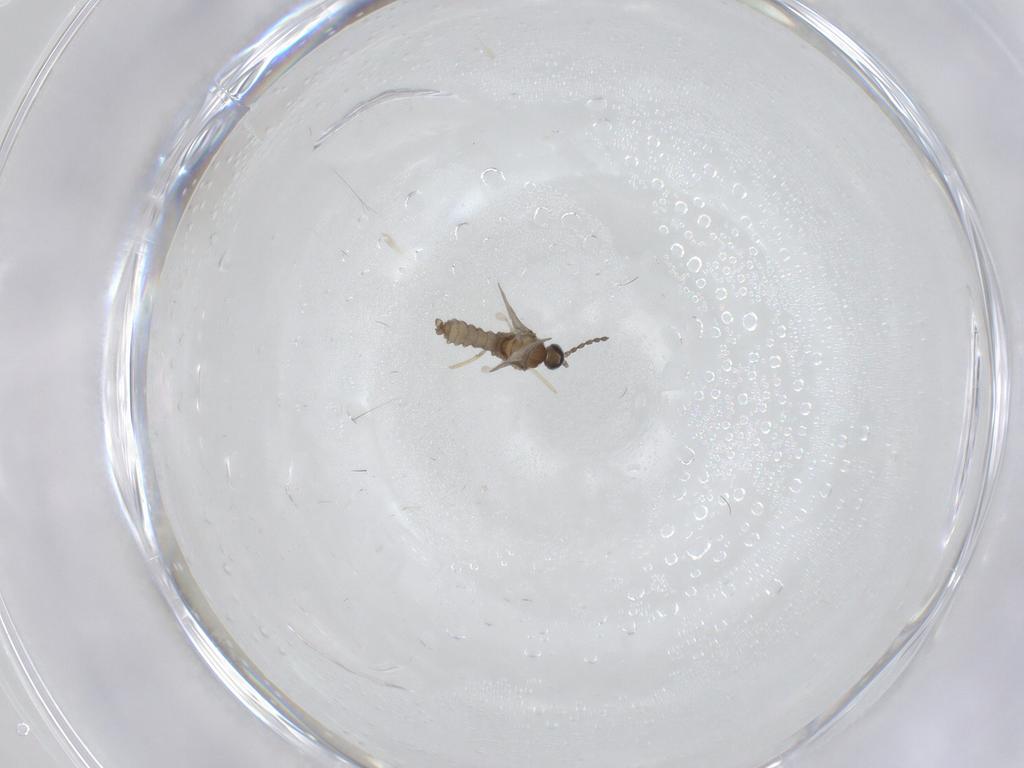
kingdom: Animalia
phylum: Arthropoda
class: Insecta
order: Diptera
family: Cecidomyiidae
